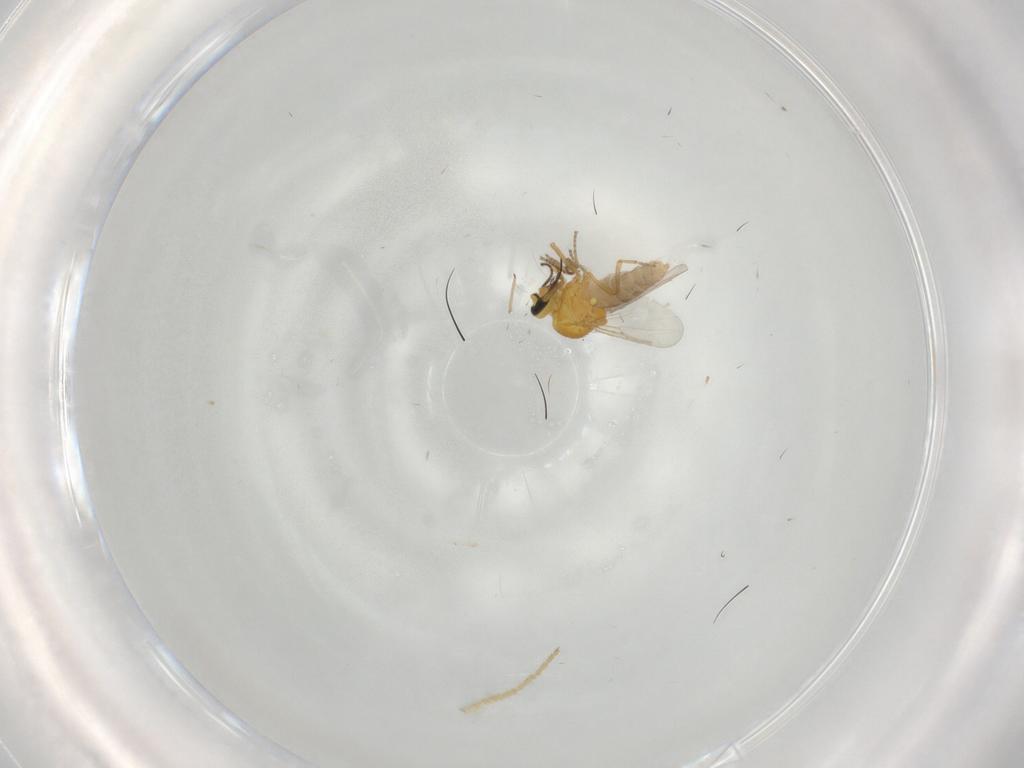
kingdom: Animalia
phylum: Arthropoda
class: Insecta
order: Diptera
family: Ceratopogonidae
